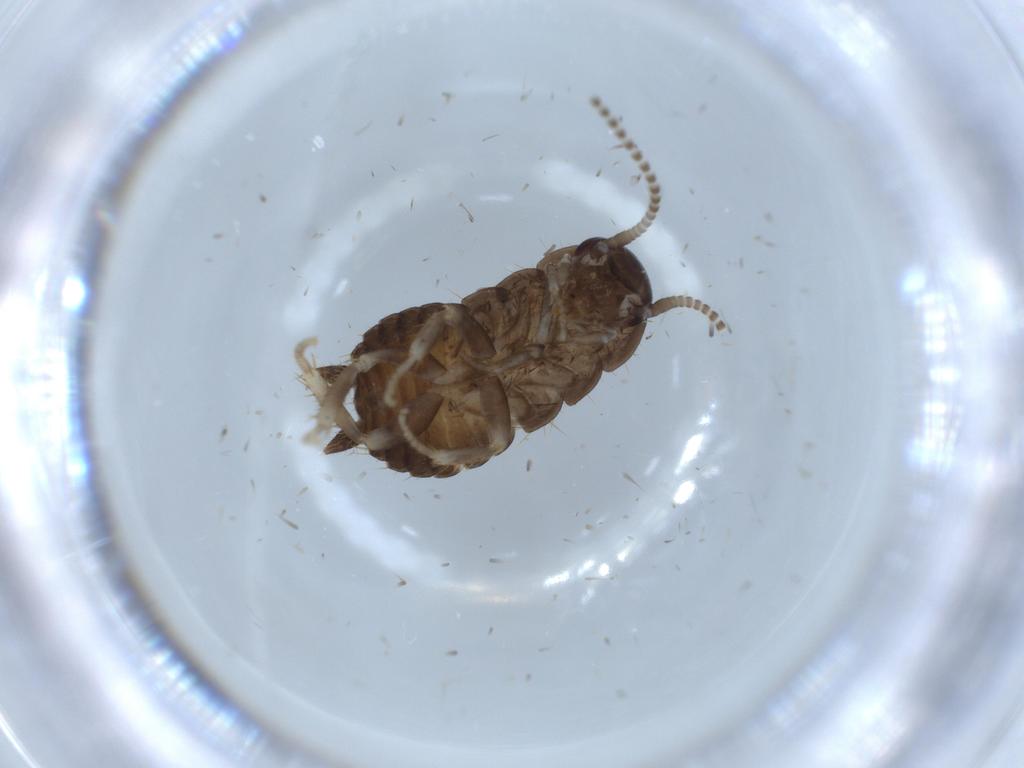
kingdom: Animalia
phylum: Arthropoda
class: Insecta
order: Blattodea
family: Ectobiidae
